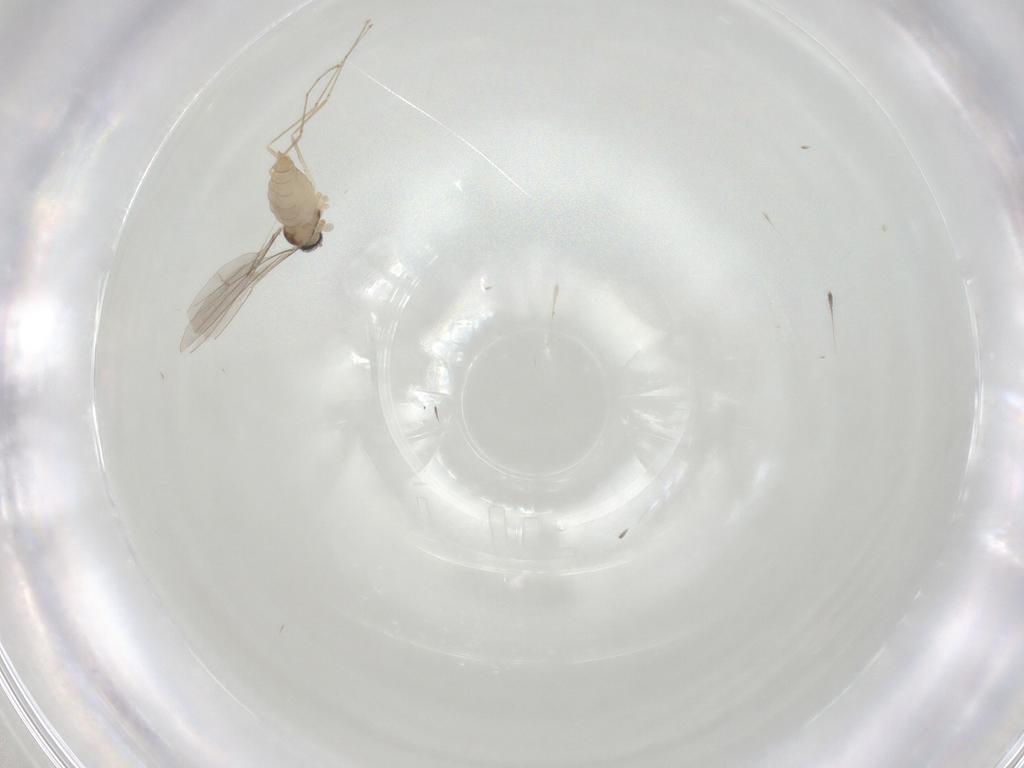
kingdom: Animalia
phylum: Arthropoda
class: Insecta
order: Diptera
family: Cecidomyiidae
